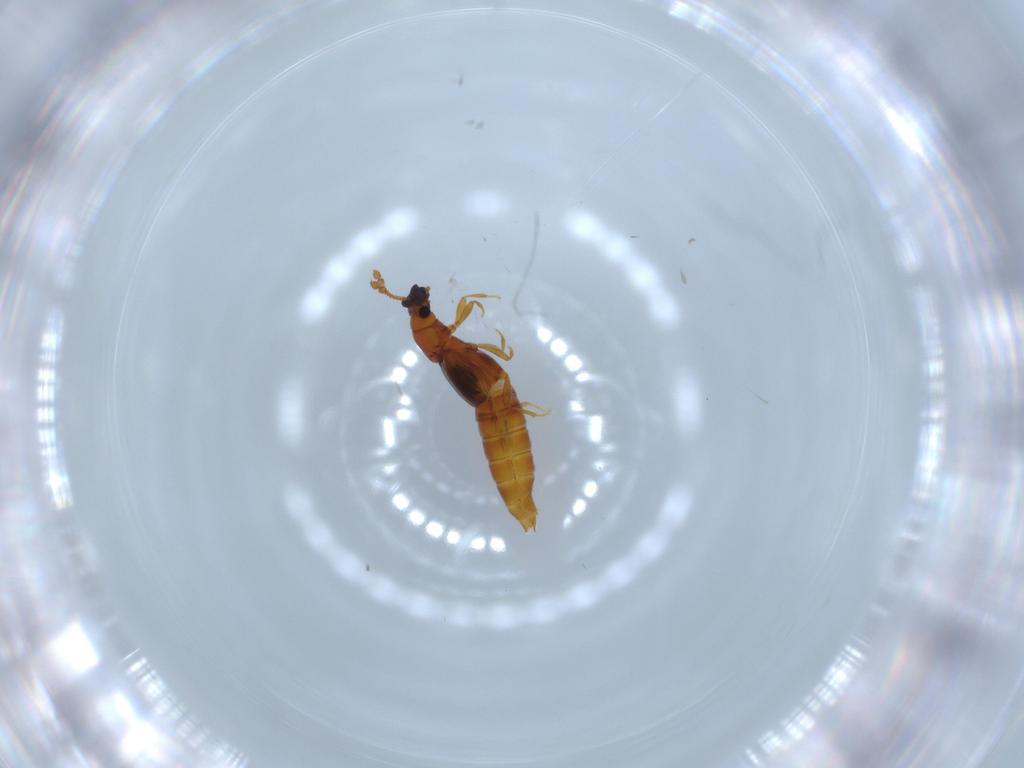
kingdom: Animalia
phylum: Arthropoda
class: Insecta
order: Coleoptera
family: Staphylinidae
